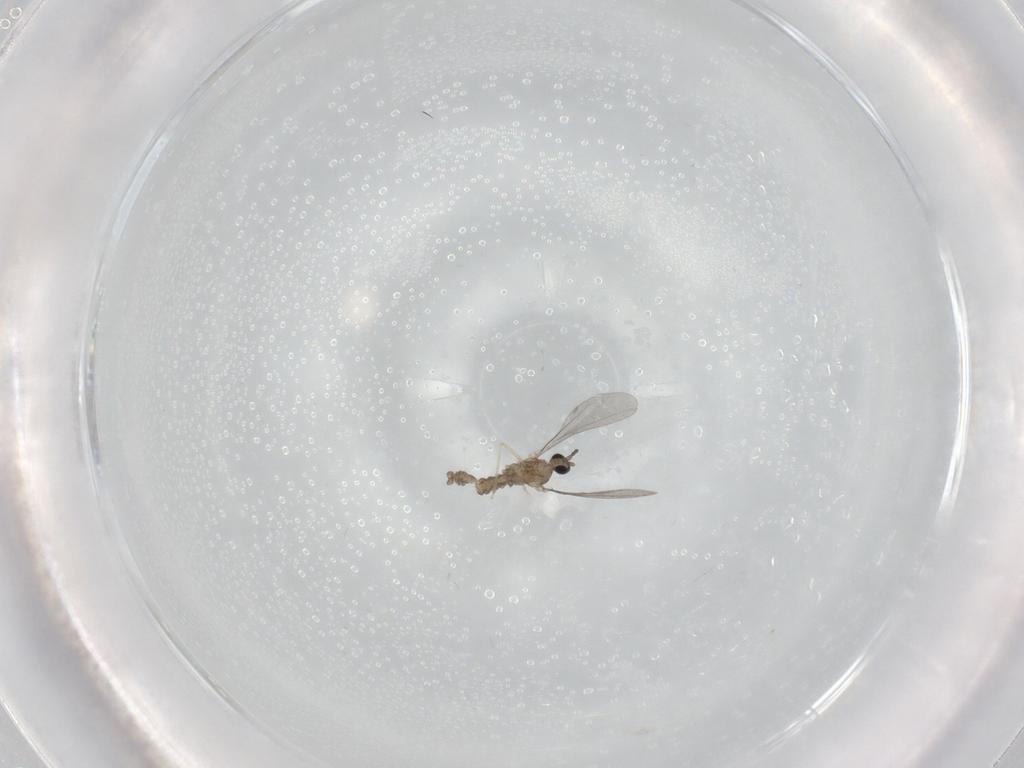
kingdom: Animalia
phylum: Arthropoda
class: Insecta
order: Diptera
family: Cecidomyiidae
